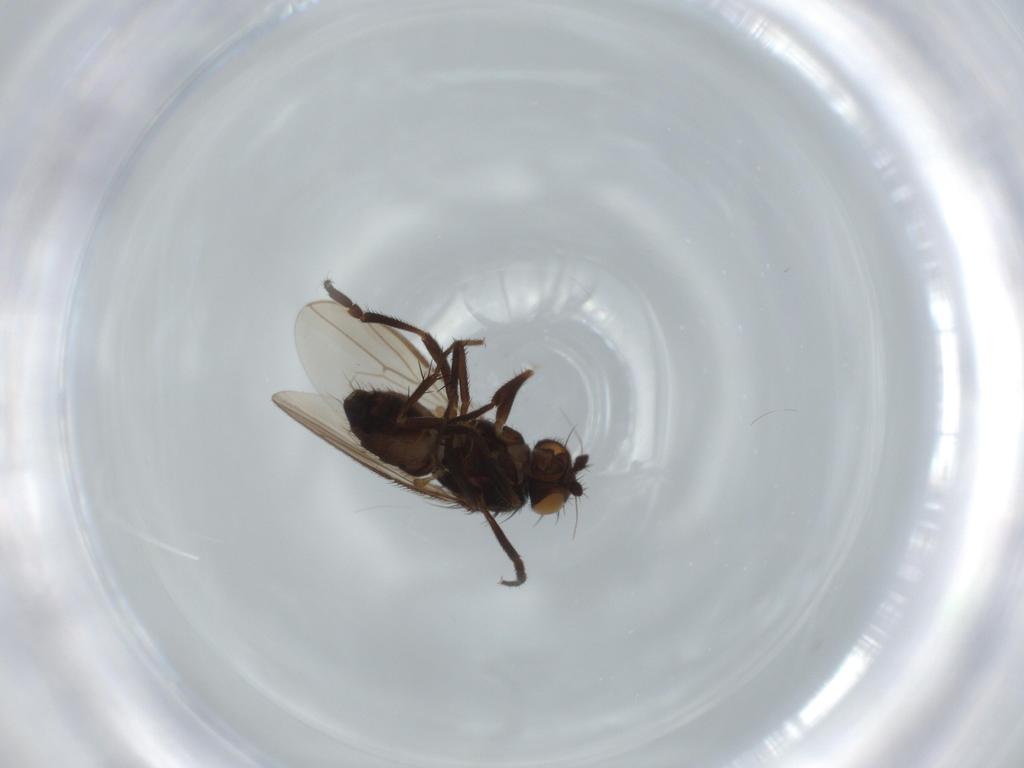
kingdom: Animalia
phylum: Arthropoda
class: Insecta
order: Diptera
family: Sphaeroceridae
